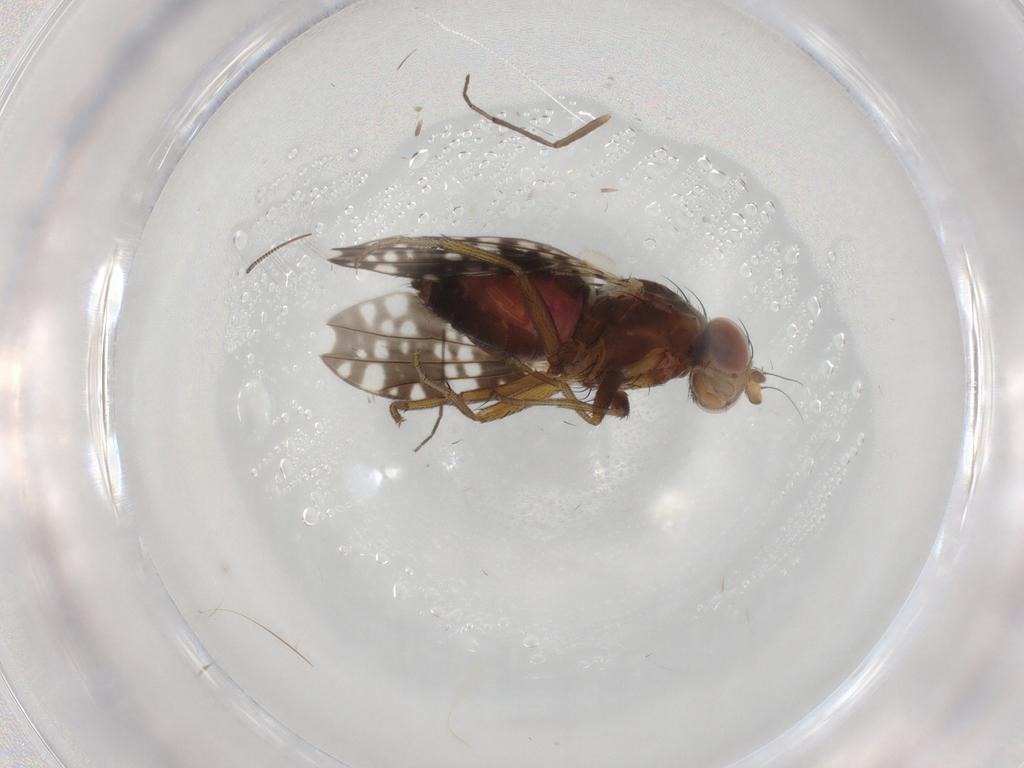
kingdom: Animalia
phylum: Arthropoda
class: Insecta
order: Diptera
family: Heleomyzidae
